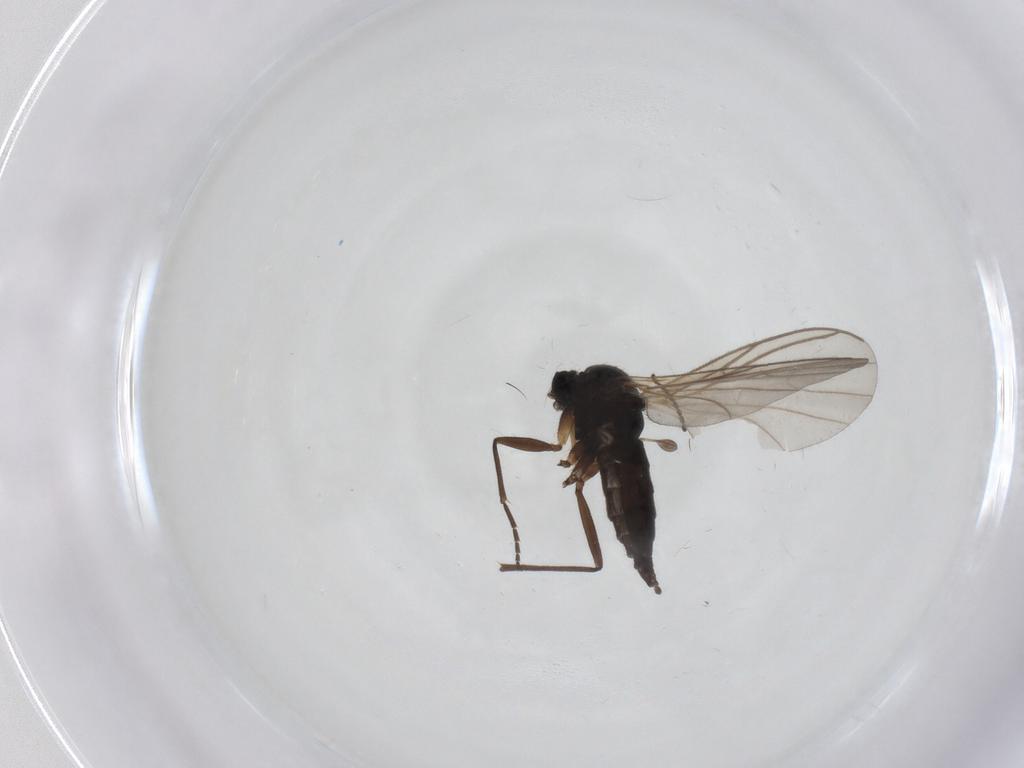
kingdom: Animalia
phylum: Arthropoda
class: Insecta
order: Diptera
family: Sciaridae
